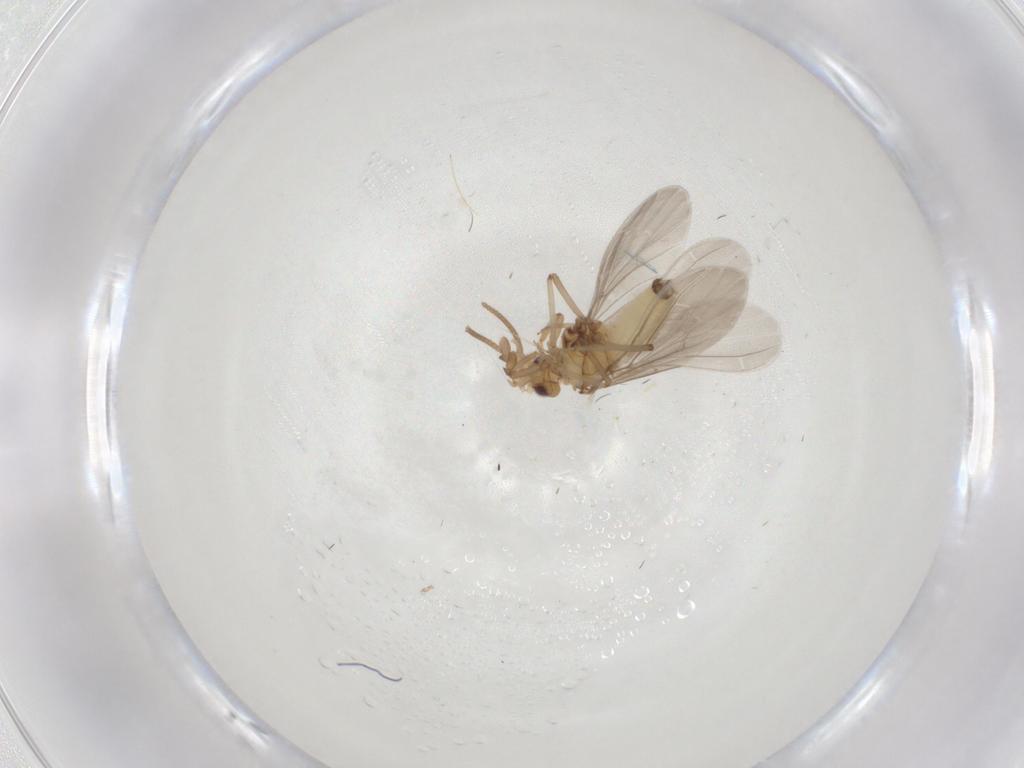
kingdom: Animalia
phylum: Arthropoda
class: Insecta
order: Neuroptera
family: Coniopterygidae
